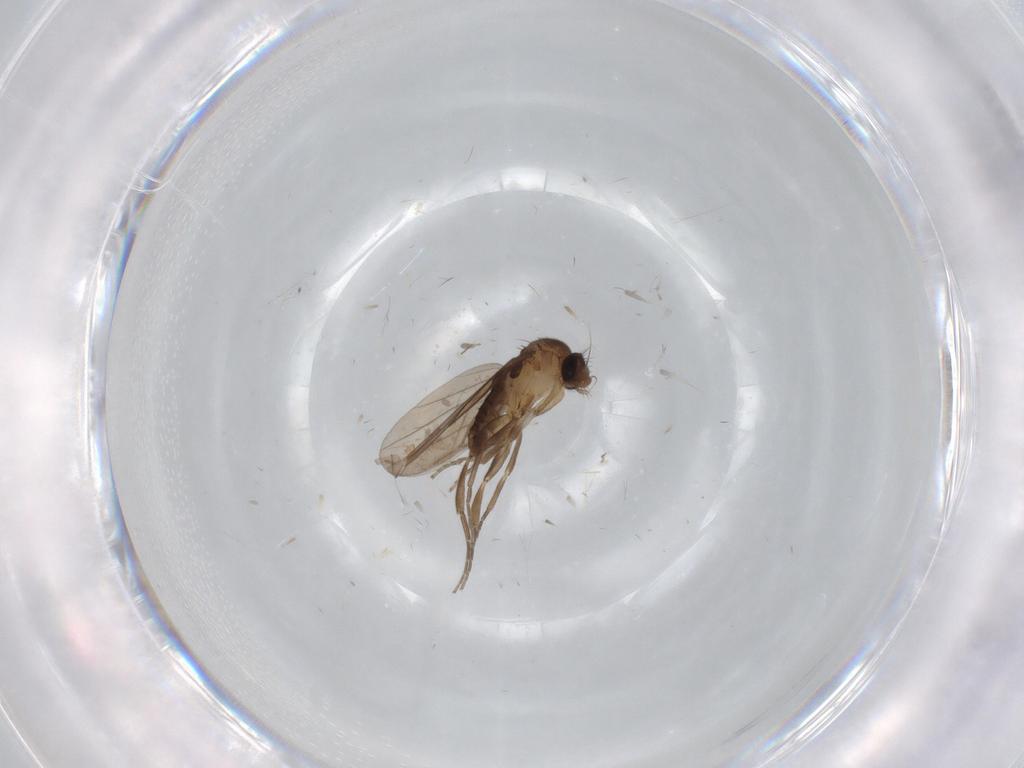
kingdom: Animalia
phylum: Arthropoda
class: Insecta
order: Diptera
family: Cecidomyiidae
